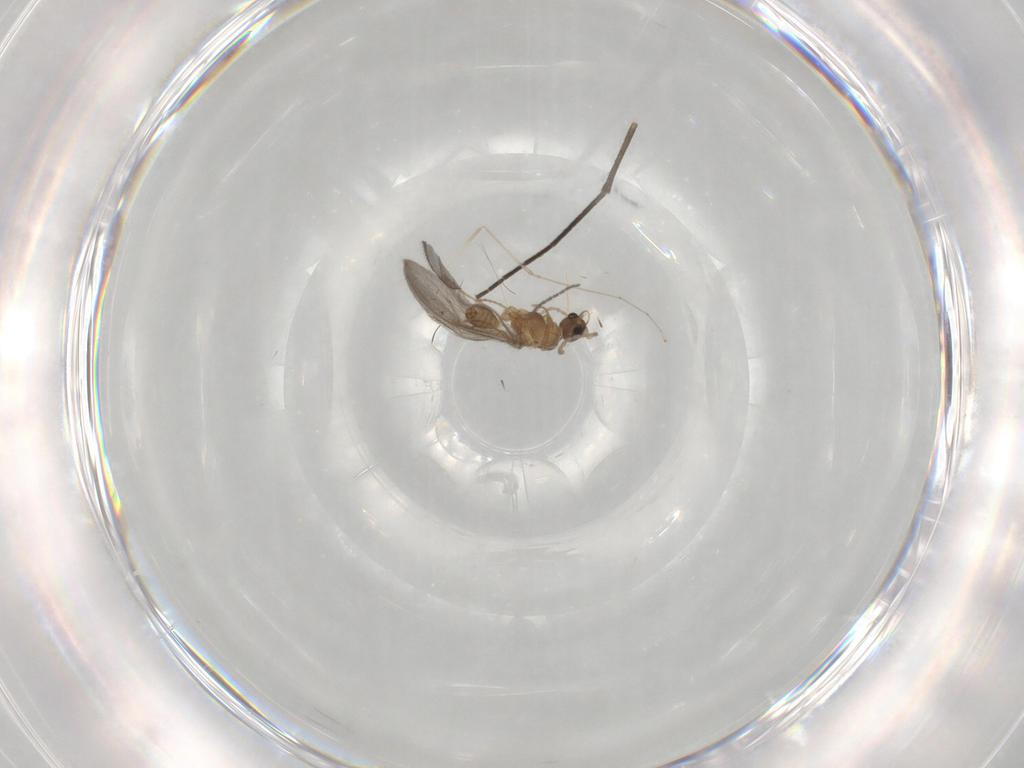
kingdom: Animalia
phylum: Arthropoda
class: Insecta
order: Hymenoptera
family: Formicidae
